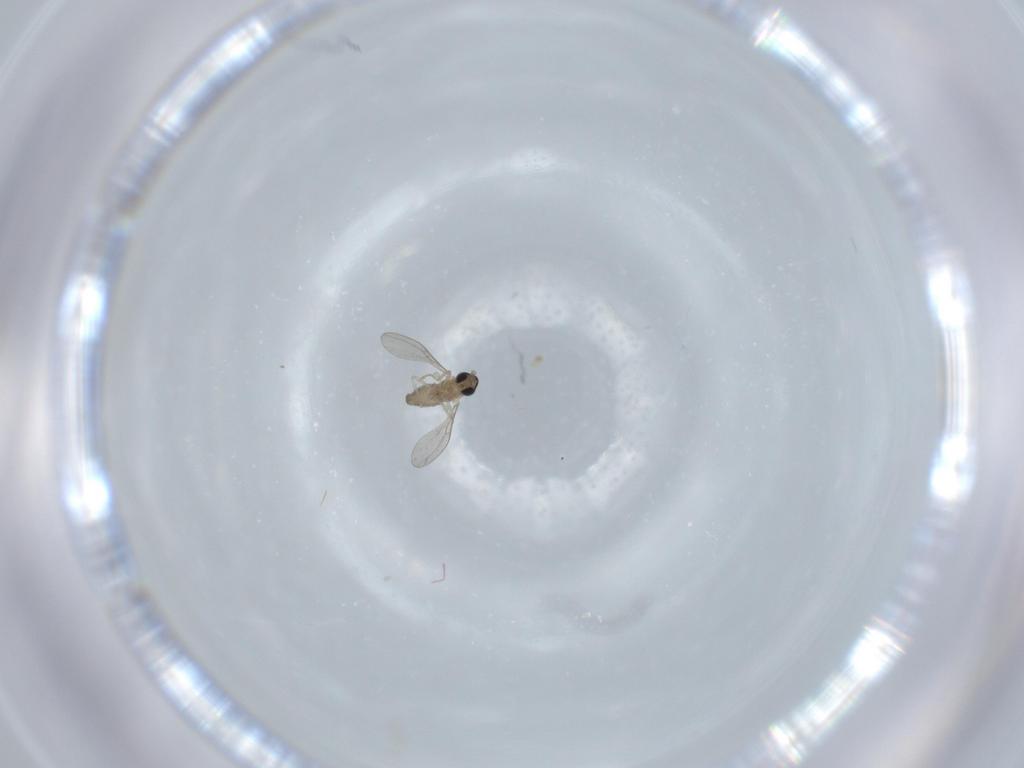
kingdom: Animalia
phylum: Arthropoda
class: Insecta
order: Diptera
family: Cecidomyiidae
